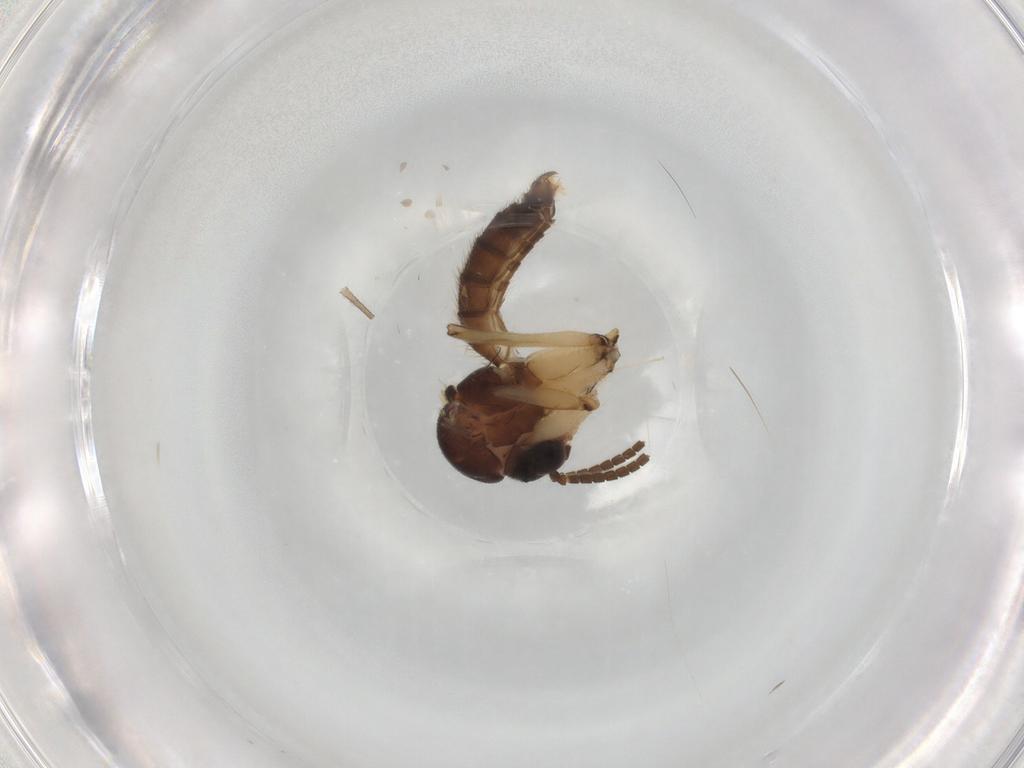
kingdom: Animalia
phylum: Arthropoda
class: Insecta
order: Diptera
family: Mycetophilidae
